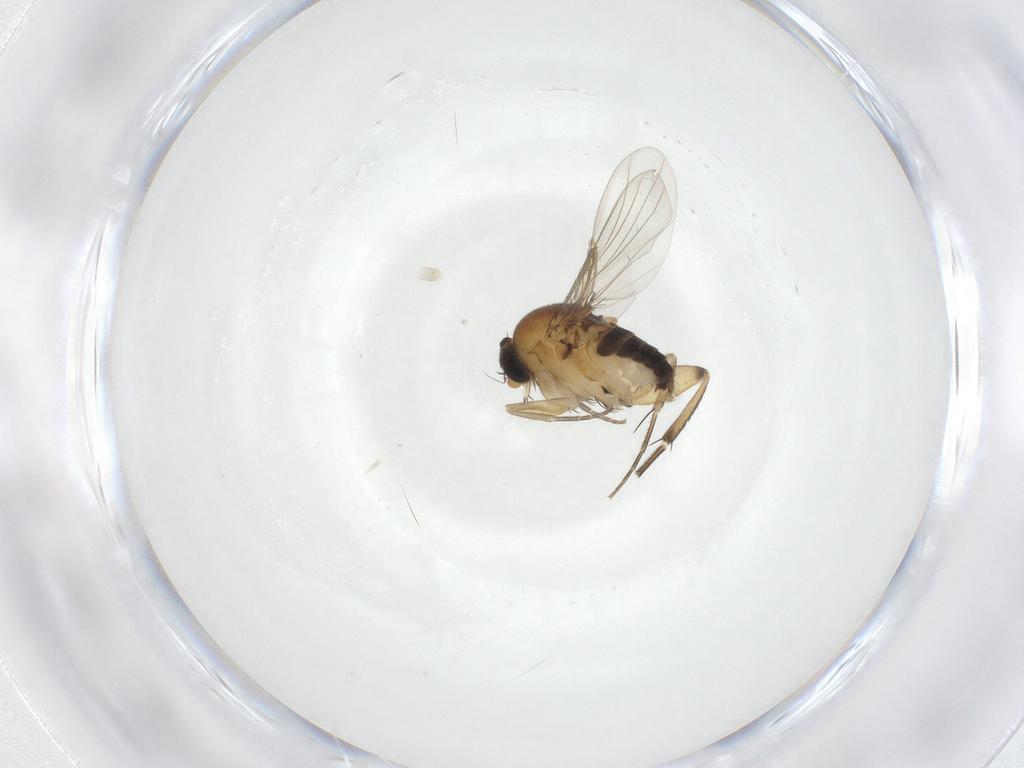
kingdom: Animalia
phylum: Arthropoda
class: Insecta
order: Diptera
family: Phoridae
